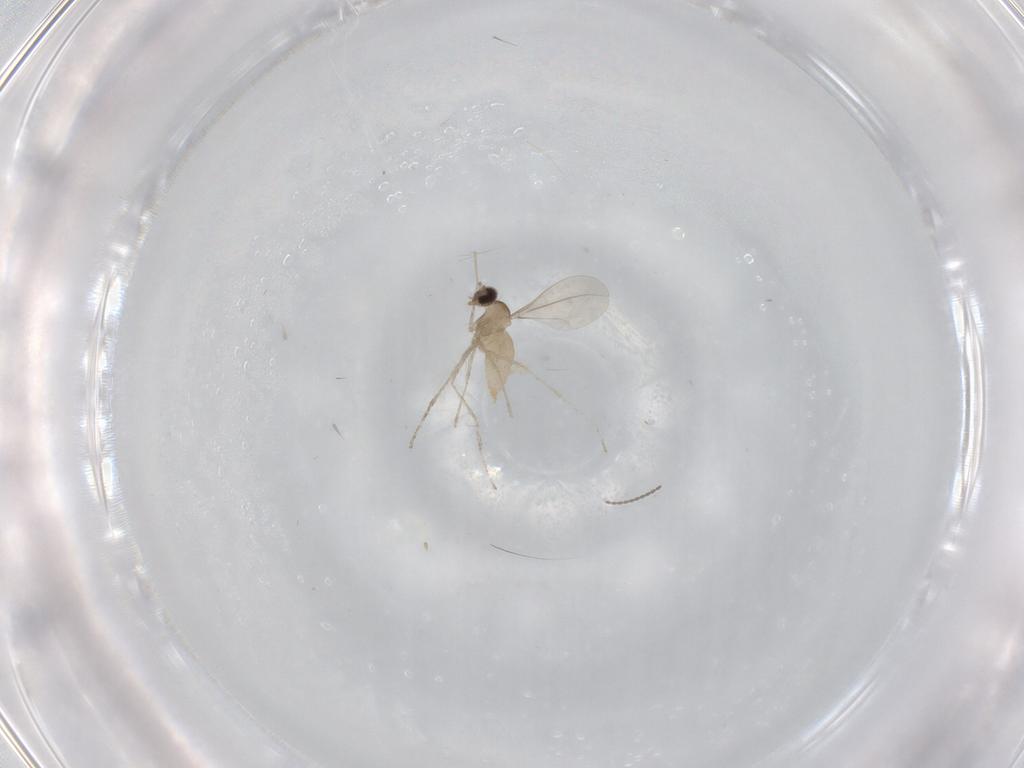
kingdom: Animalia
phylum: Arthropoda
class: Insecta
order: Diptera
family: Cecidomyiidae
